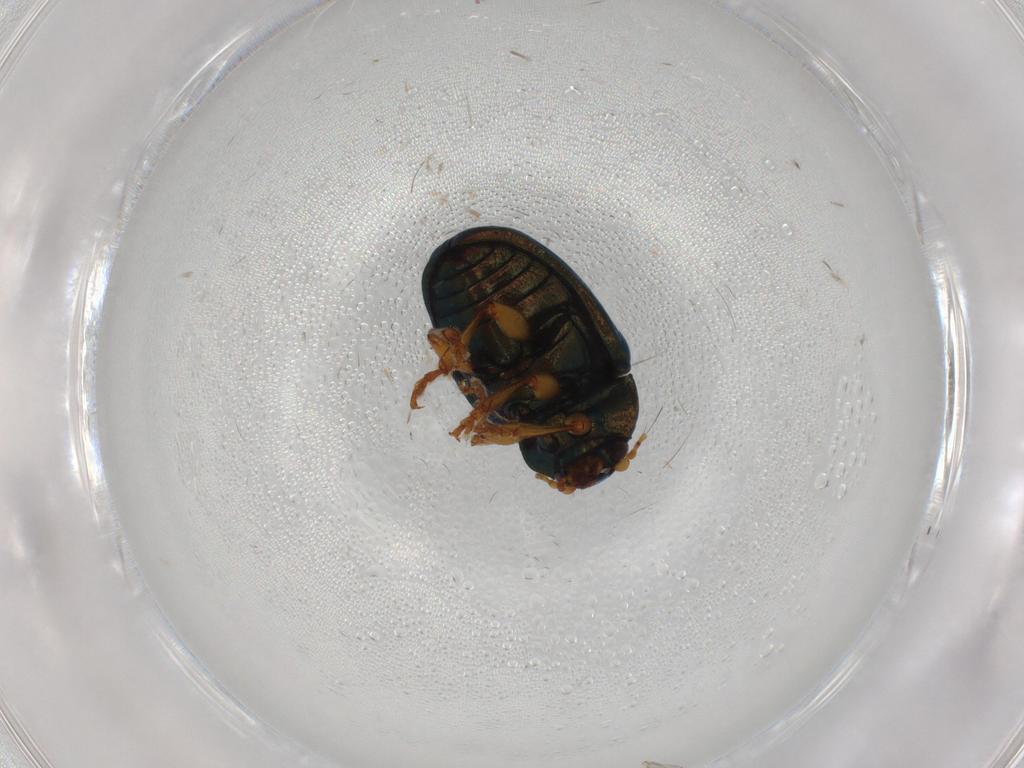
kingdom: Animalia
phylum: Arthropoda
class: Insecta
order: Coleoptera
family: Chrysomelidae
